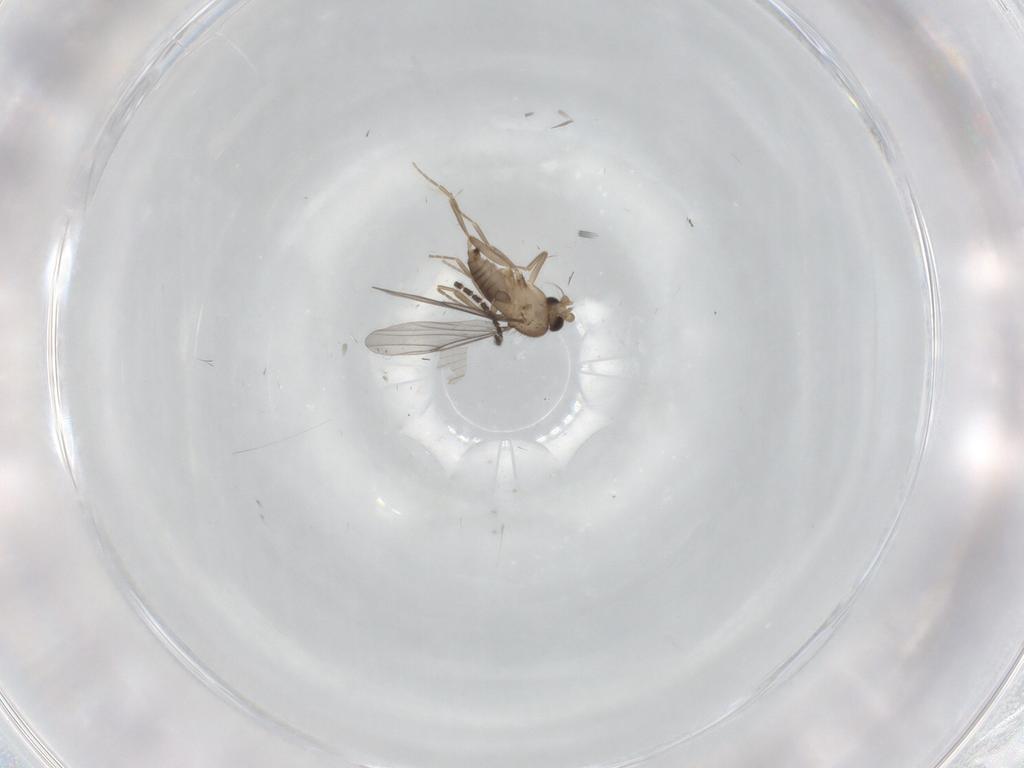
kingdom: Animalia
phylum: Arthropoda
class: Insecta
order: Diptera
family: Sciaridae
